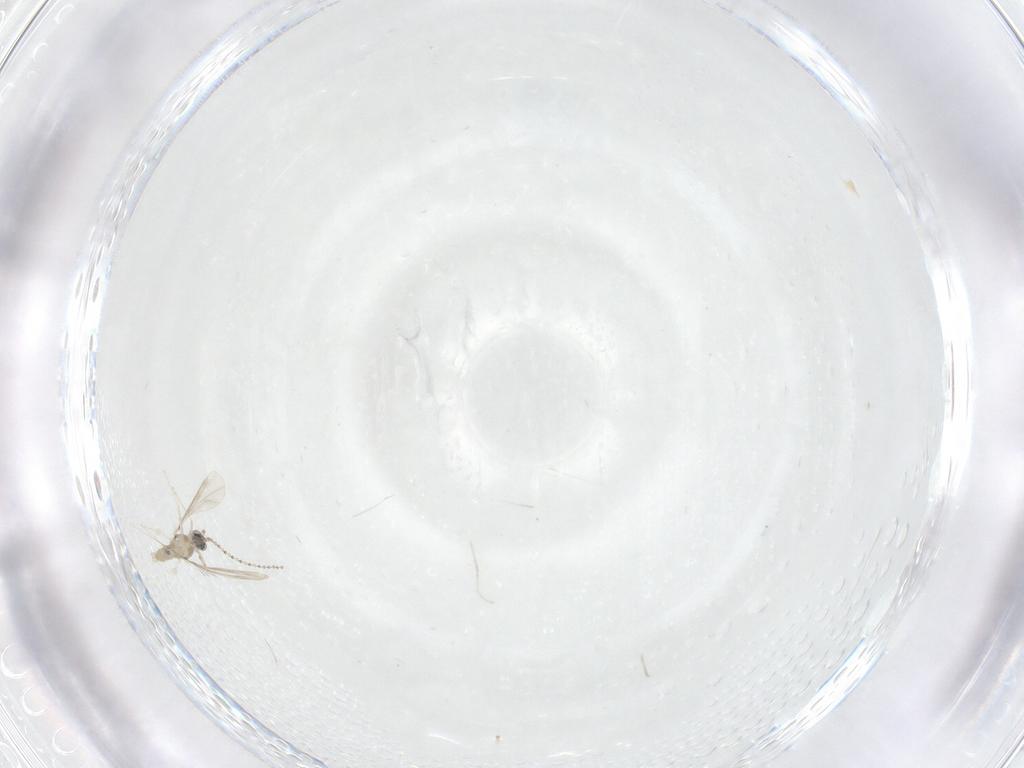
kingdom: Animalia
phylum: Arthropoda
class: Insecta
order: Diptera
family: Cecidomyiidae
